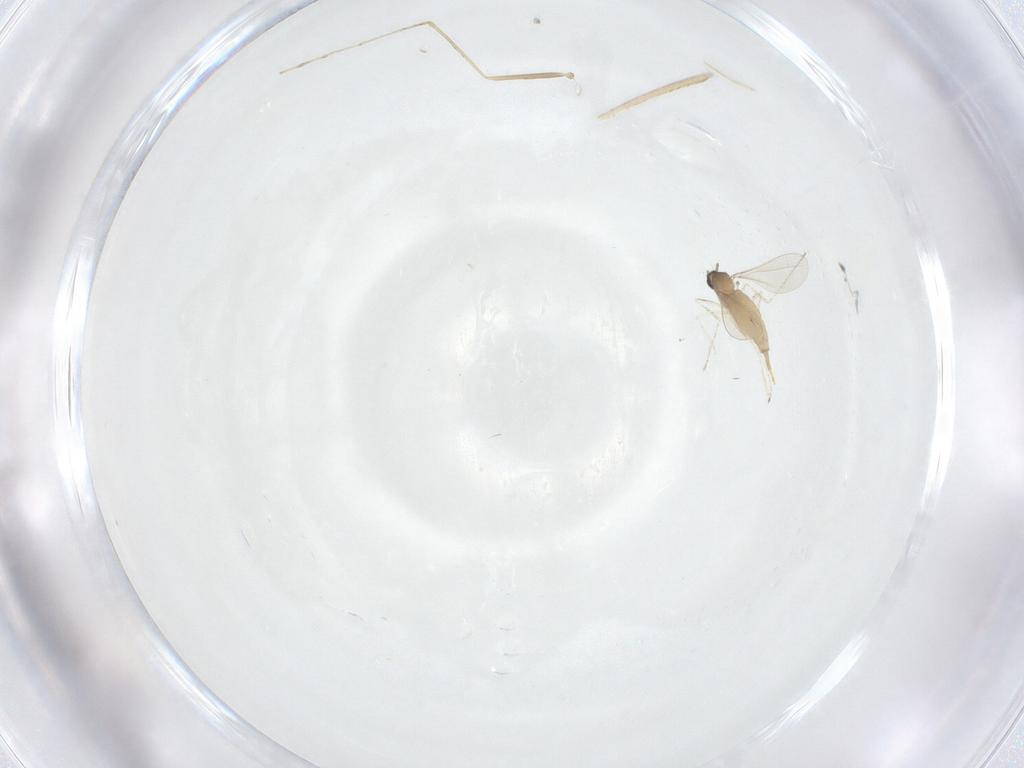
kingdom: Animalia
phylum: Arthropoda
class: Insecta
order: Diptera
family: Cecidomyiidae
